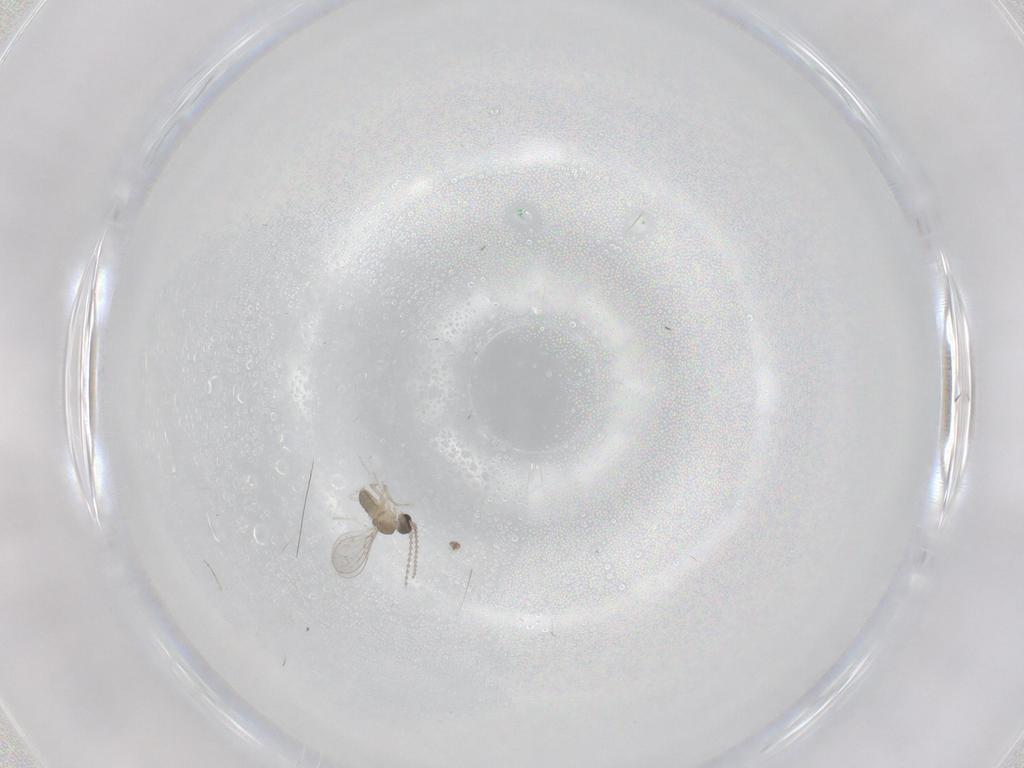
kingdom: Animalia
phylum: Arthropoda
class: Insecta
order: Diptera
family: Cecidomyiidae
